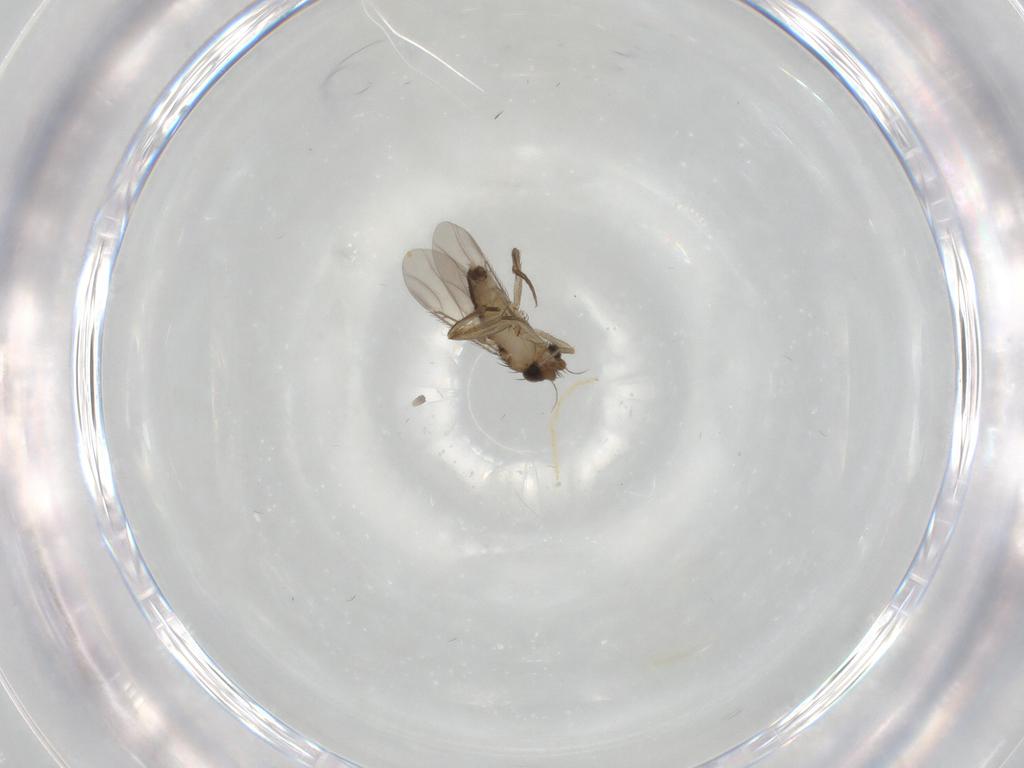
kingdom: Animalia
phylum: Arthropoda
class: Insecta
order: Diptera
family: Phoridae
